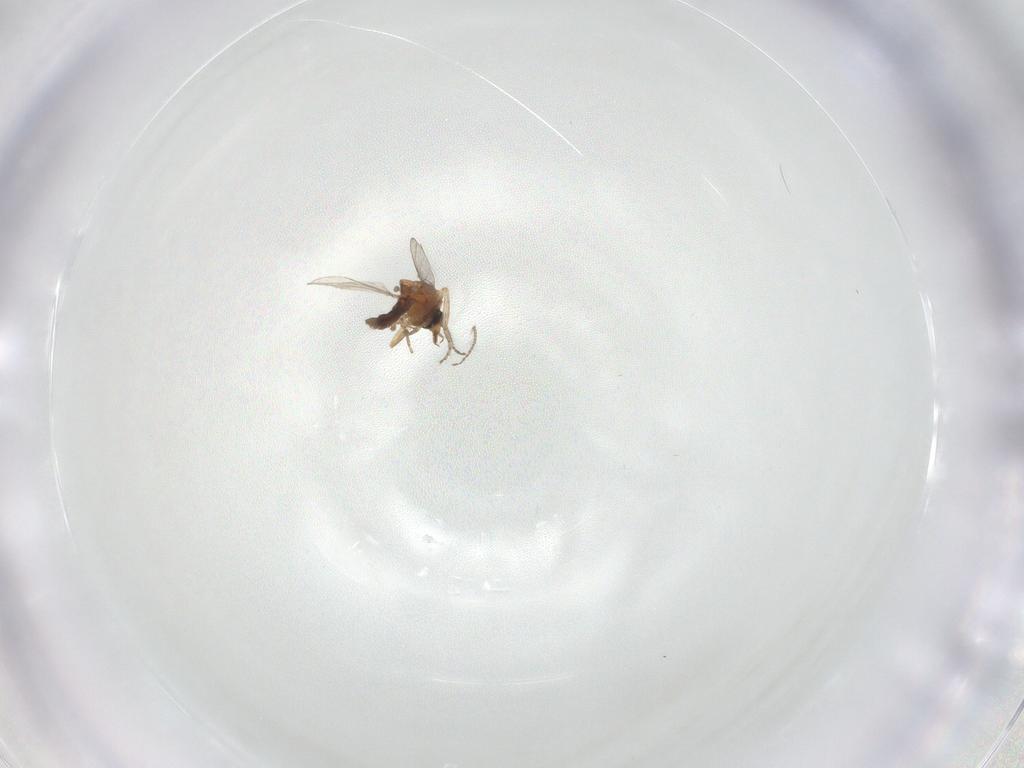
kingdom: Animalia
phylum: Arthropoda
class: Insecta
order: Diptera
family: Ceratopogonidae
